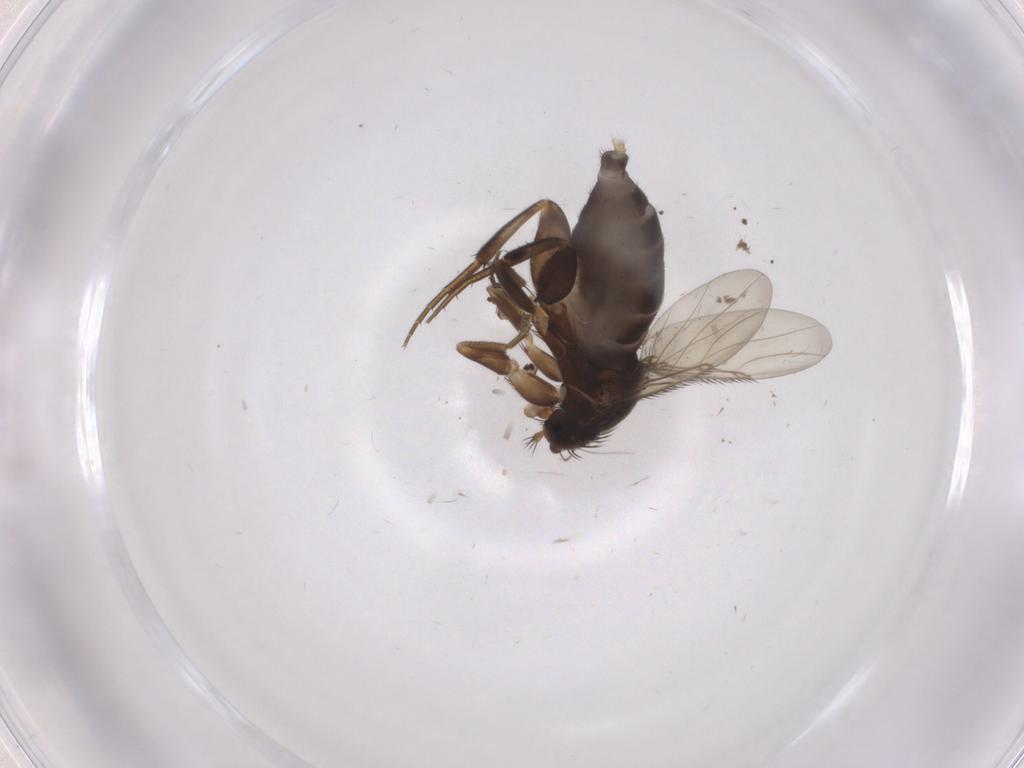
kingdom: Animalia
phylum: Arthropoda
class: Insecta
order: Diptera
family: Phoridae
